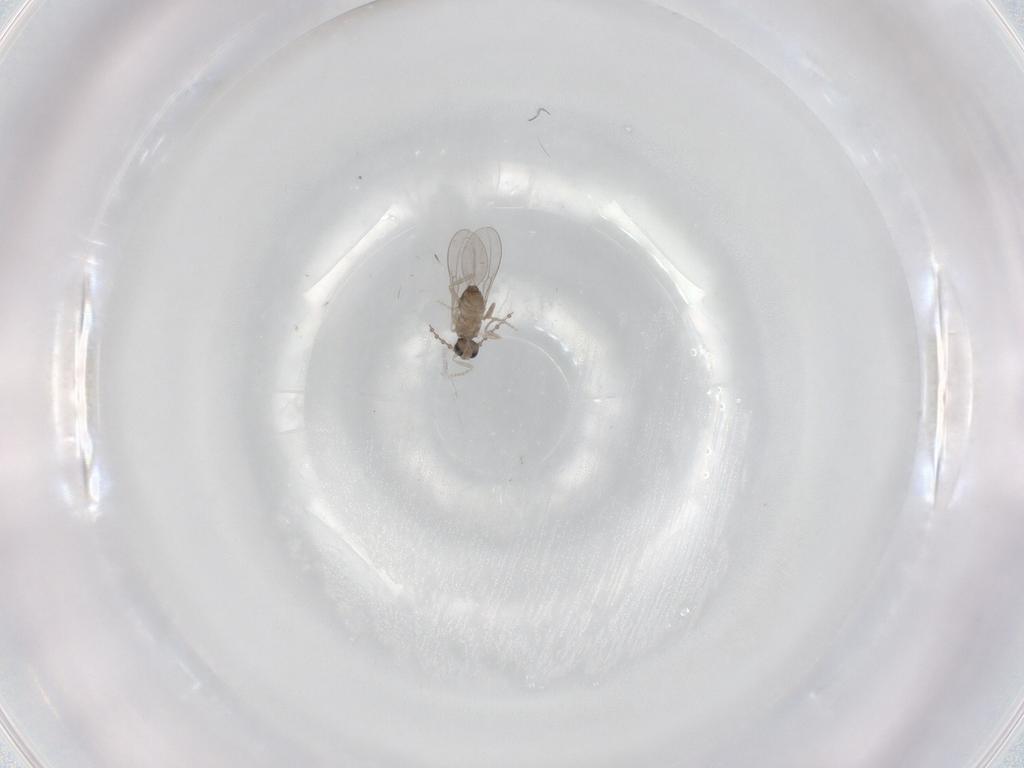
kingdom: Animalia
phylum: Arthropoda
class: Insecta
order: Diptera
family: Cecidomyiidae
